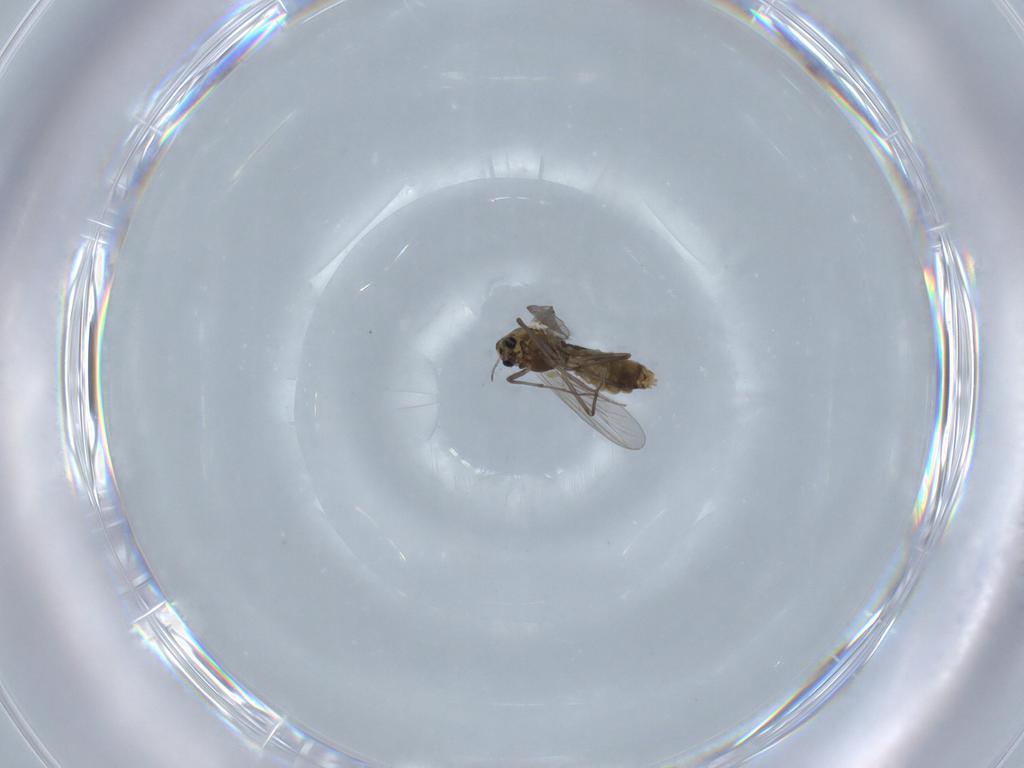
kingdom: Animalia
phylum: Arthropoda
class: Insecta
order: Diptera
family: Chironomidae
